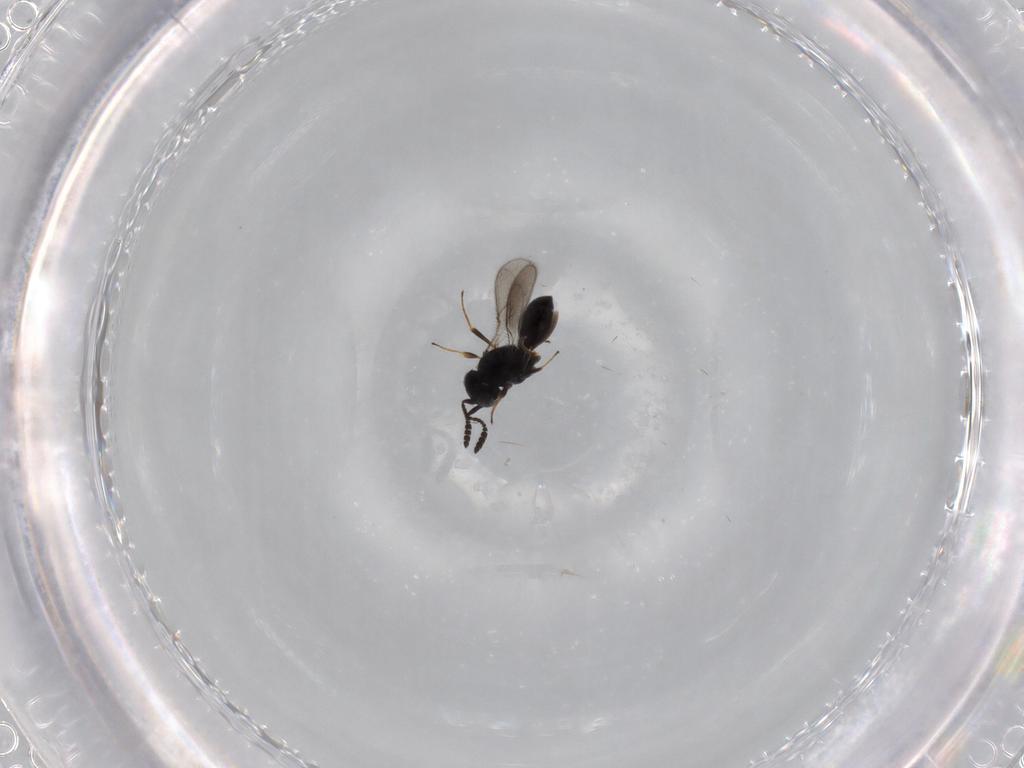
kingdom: Animalia
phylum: Arthropoda
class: Insecta
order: Hymenoptera
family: Scelionidae
